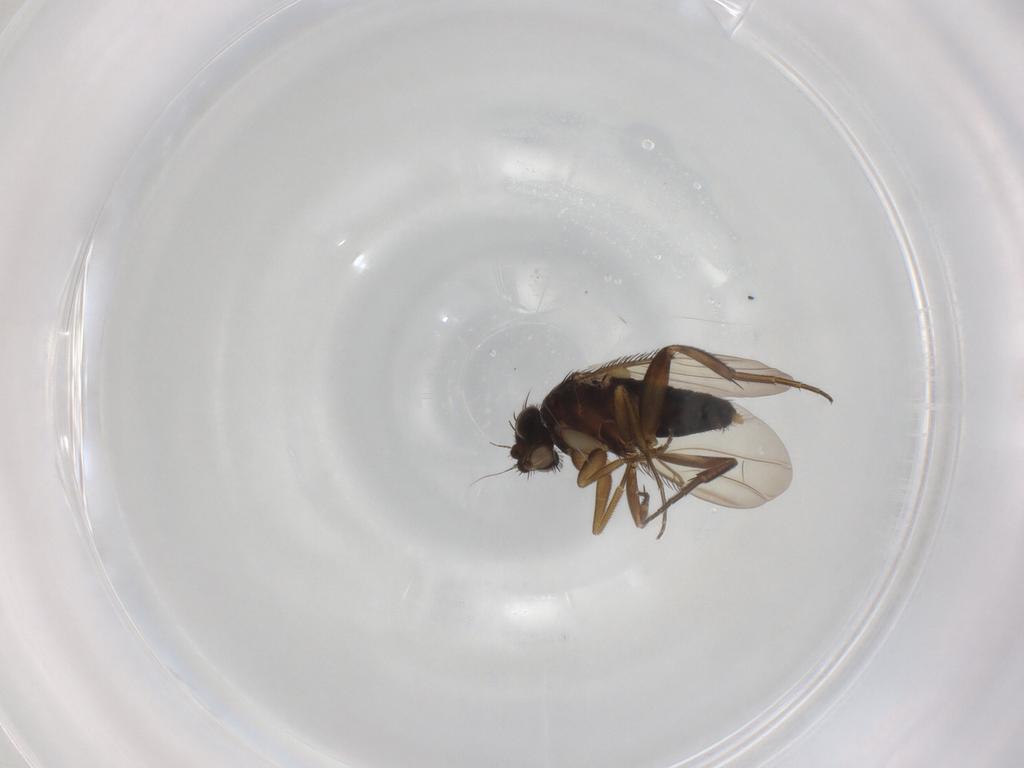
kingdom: Animalia
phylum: Arthropoda
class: Insecta
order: Diptera
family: Phoridae
